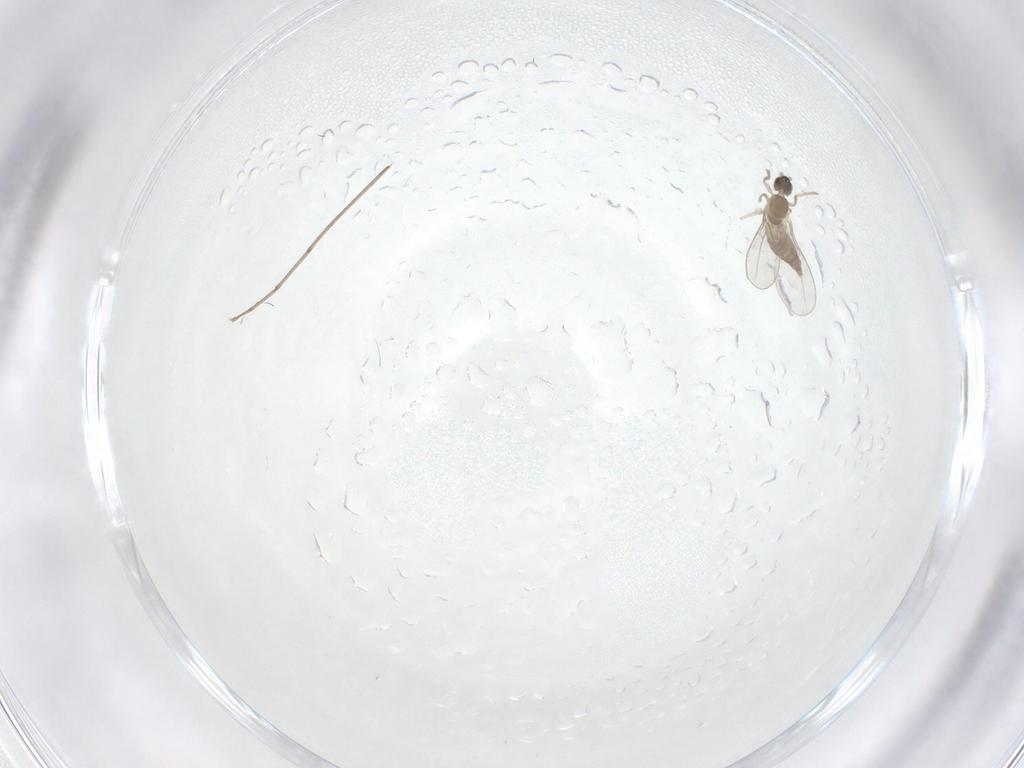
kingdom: Animalia
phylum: Arthropoda
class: Insecta
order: Diptera
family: Cecidomyiidae
